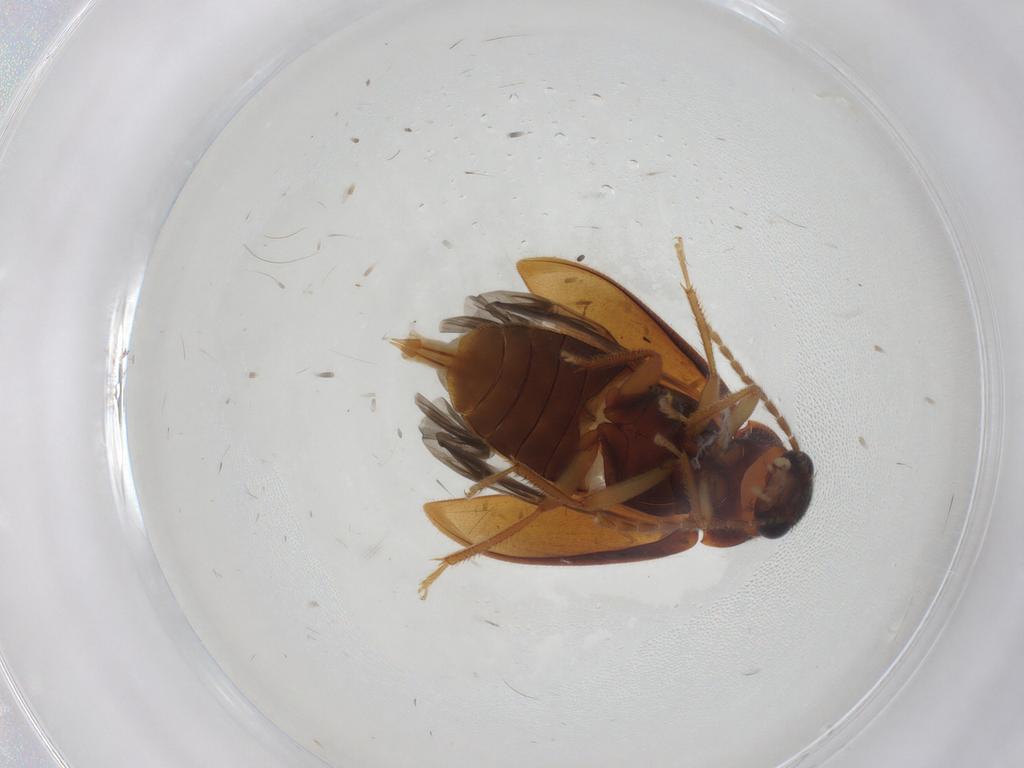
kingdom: Animalia
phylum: Arthropoda
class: Insecta
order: Coleoptera
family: Ptilodactylidae
